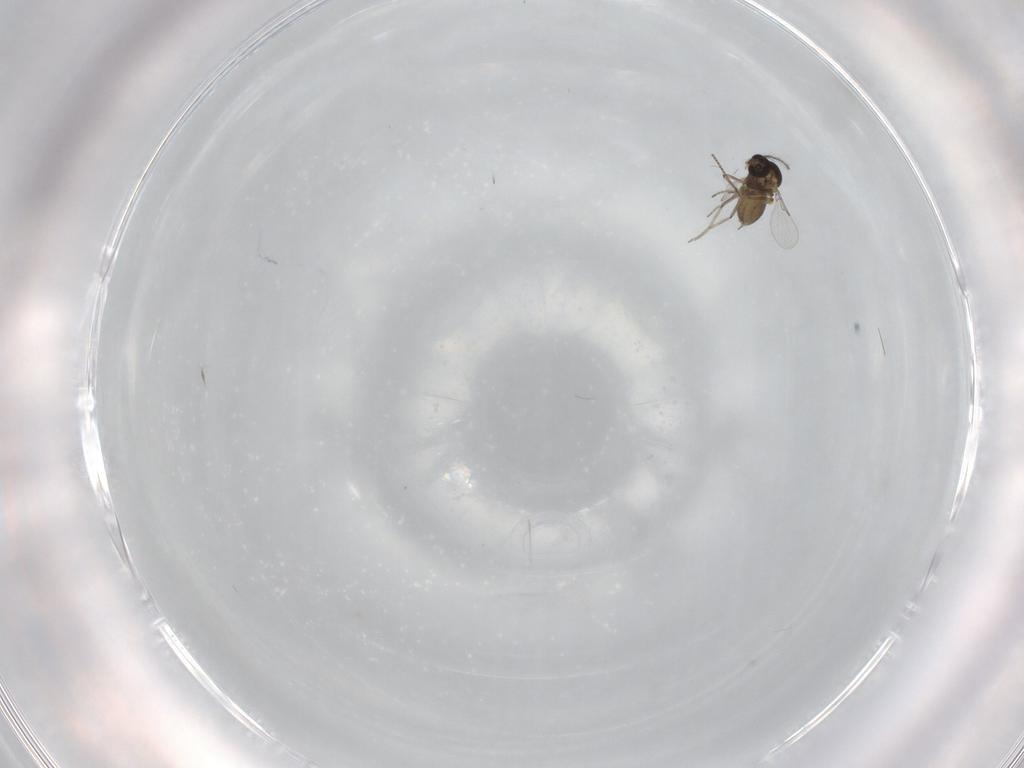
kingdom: Animalia
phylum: Arthropoda
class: Insecta
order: Diptera
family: Ceratopogonidae
